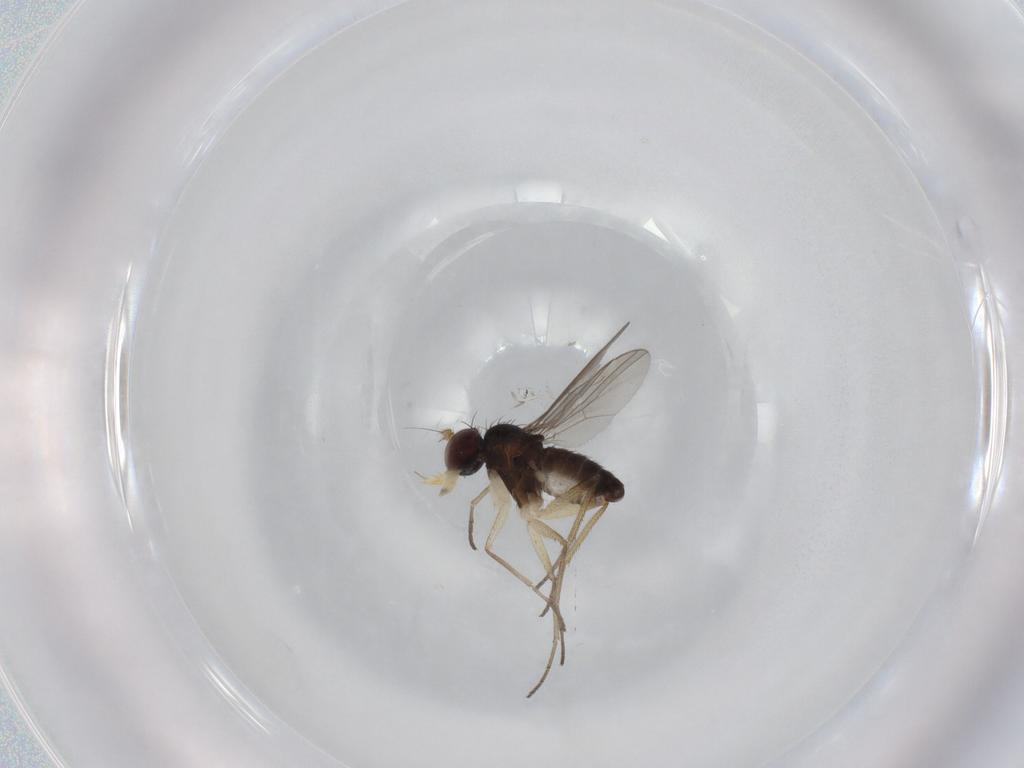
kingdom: Animalia
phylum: Arthropoda
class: Insecta
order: Diptera
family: Dolichopodidae
